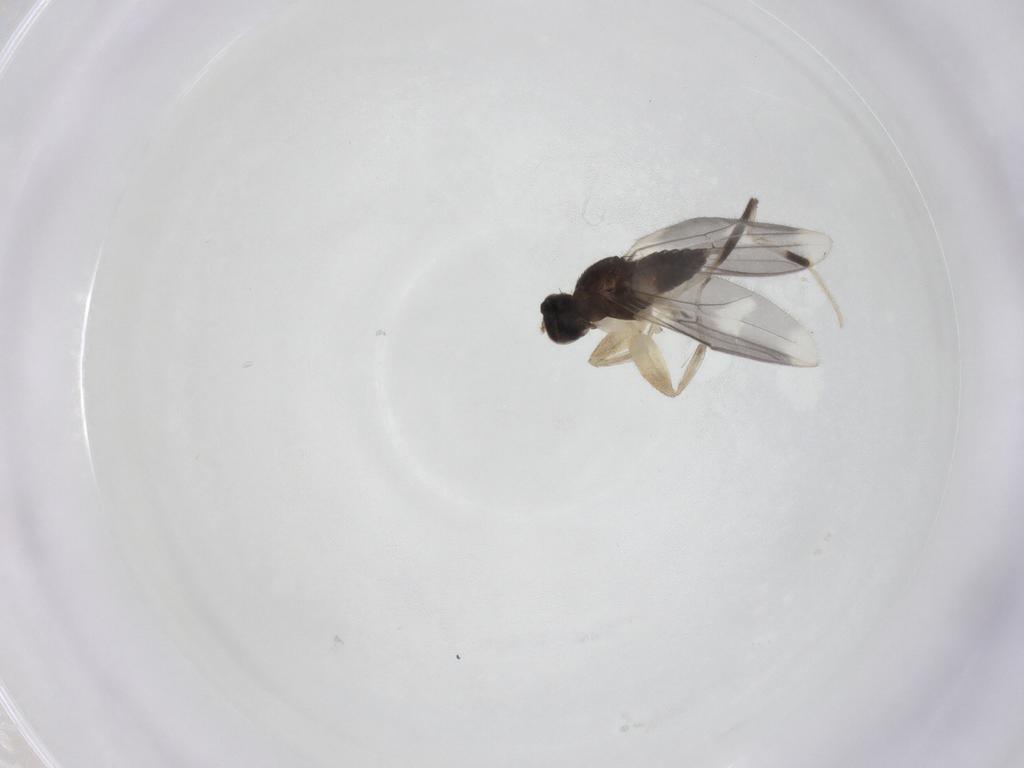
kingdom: Animalia
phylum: Arthropoda
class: Insecta
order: Diptera
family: Chironomidae
